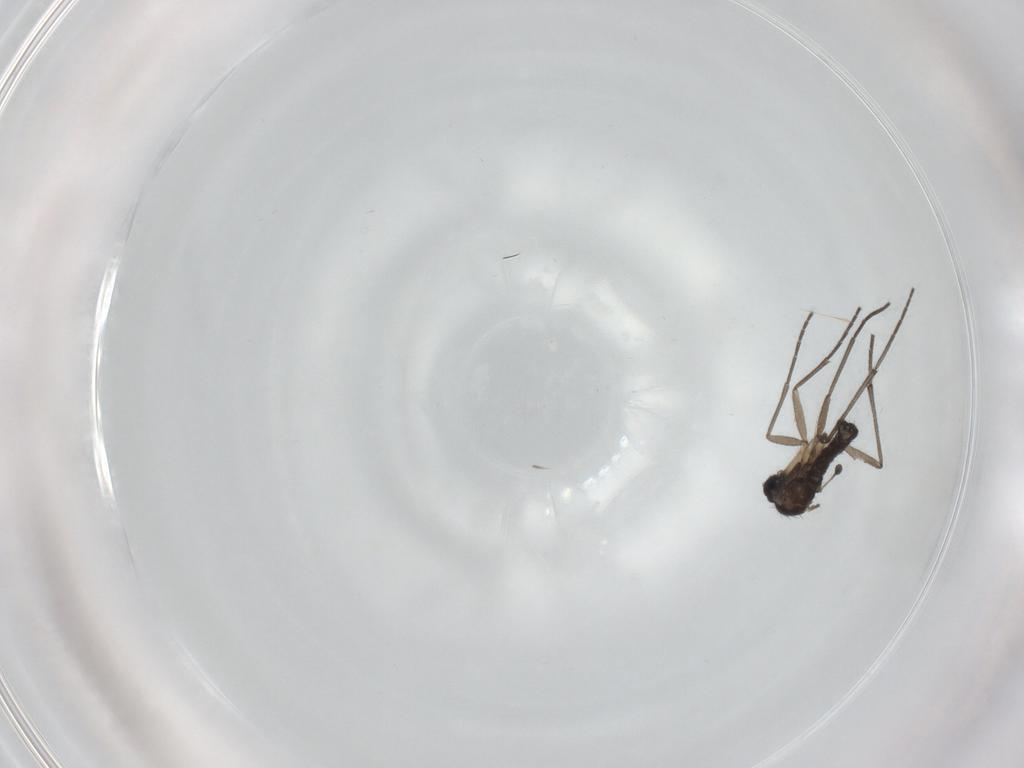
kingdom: Animalia
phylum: Arthropoda
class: Insecta
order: Diptera
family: Sciaridae
